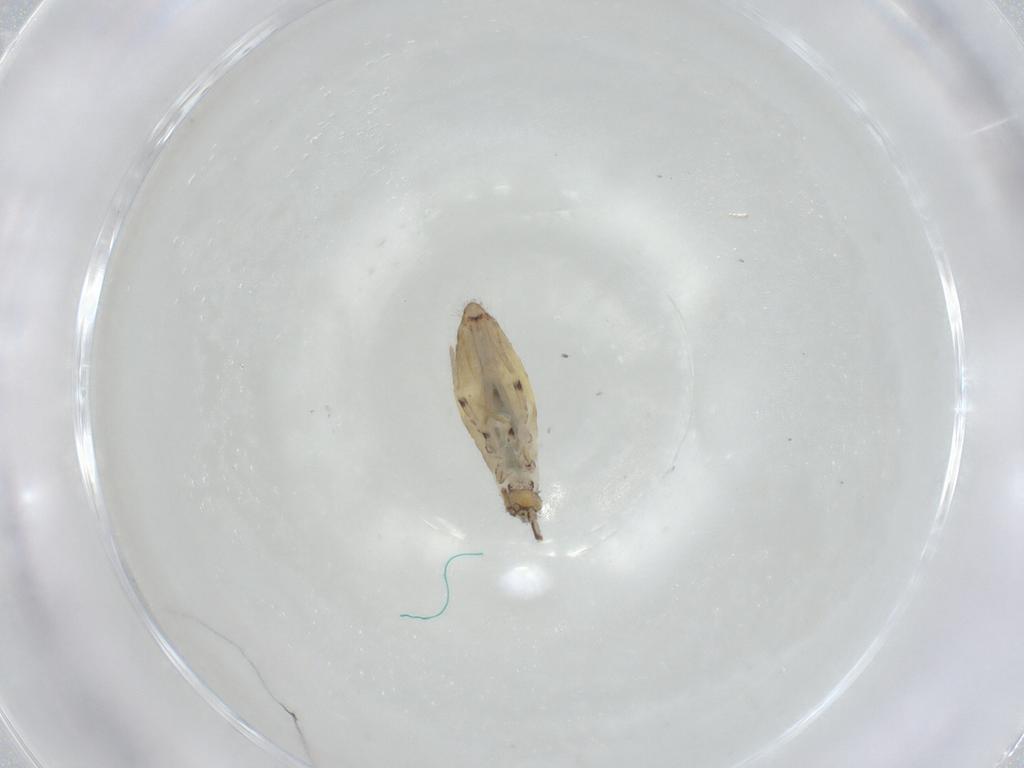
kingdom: Animalia
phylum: Arthropoda
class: Collembola
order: Entomobryomorpha
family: Entomobryidae
